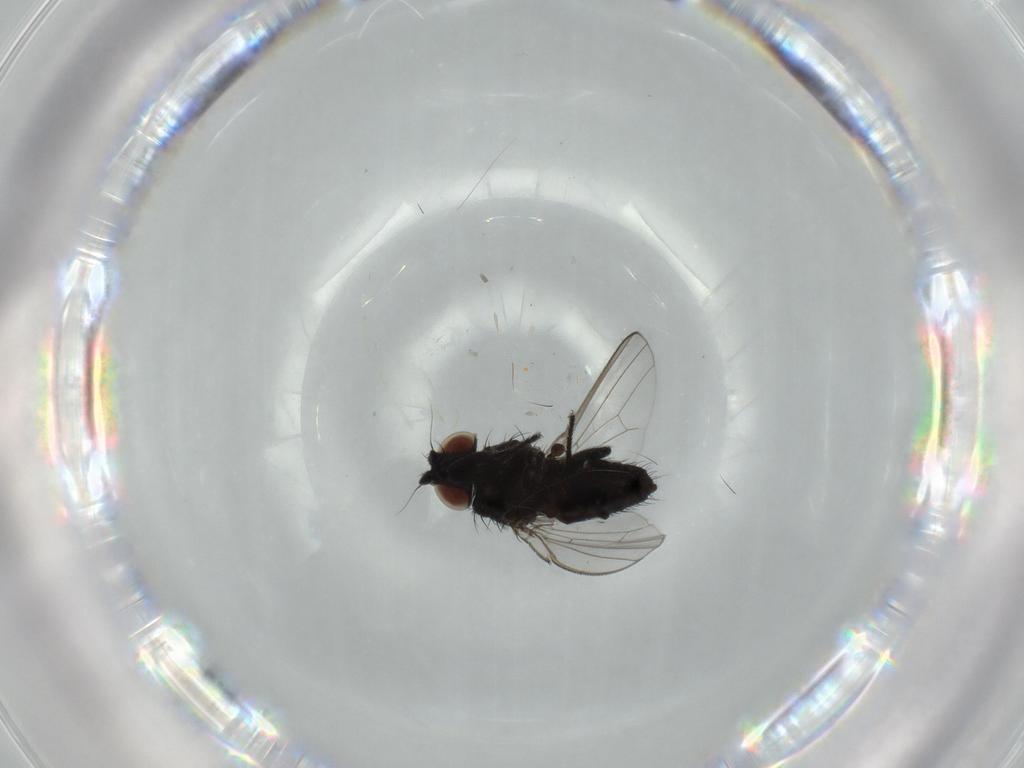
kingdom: Animalia
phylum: Arthropoda
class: Insecta
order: Diptera
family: Milichiidae
